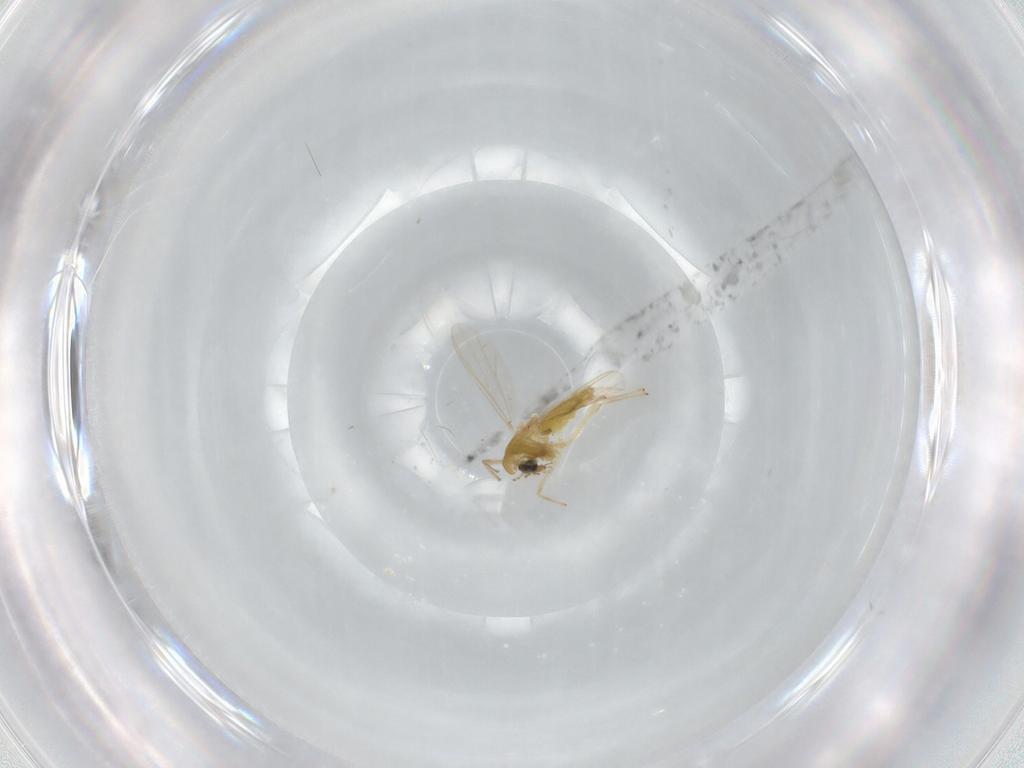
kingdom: Animalia
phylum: Arthropoda
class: Insecta
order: Diptera
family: Chironomidae
